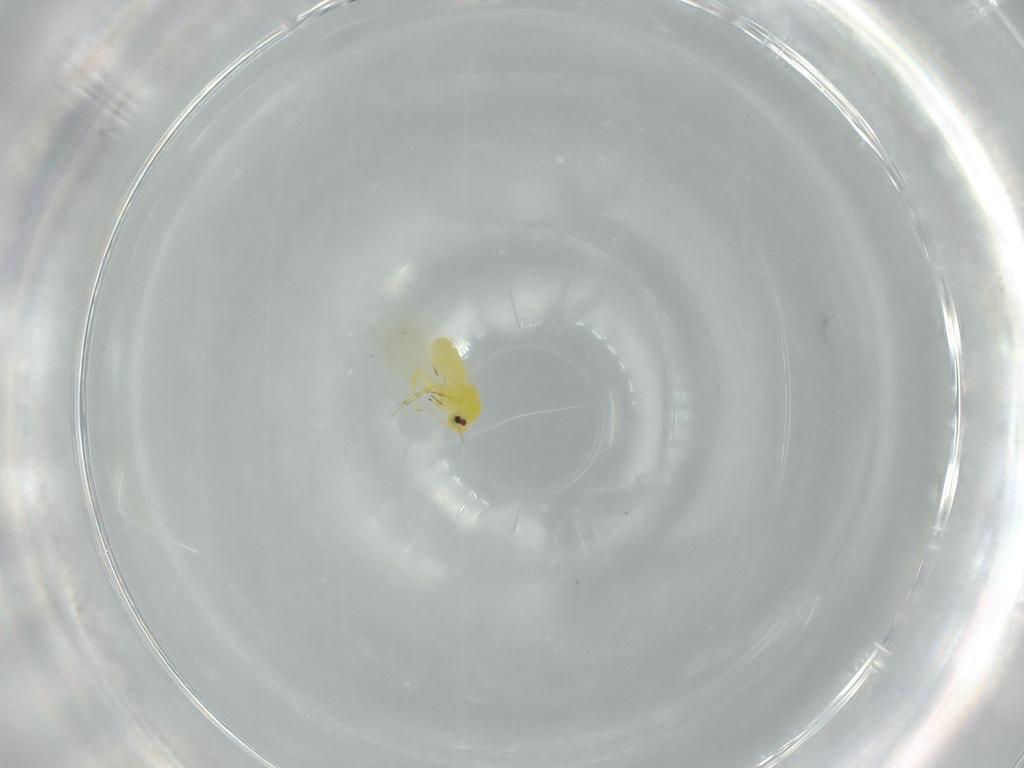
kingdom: Animalia
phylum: Arthropoda
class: Insecta
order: Hemiptera
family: Aleyrodidae
